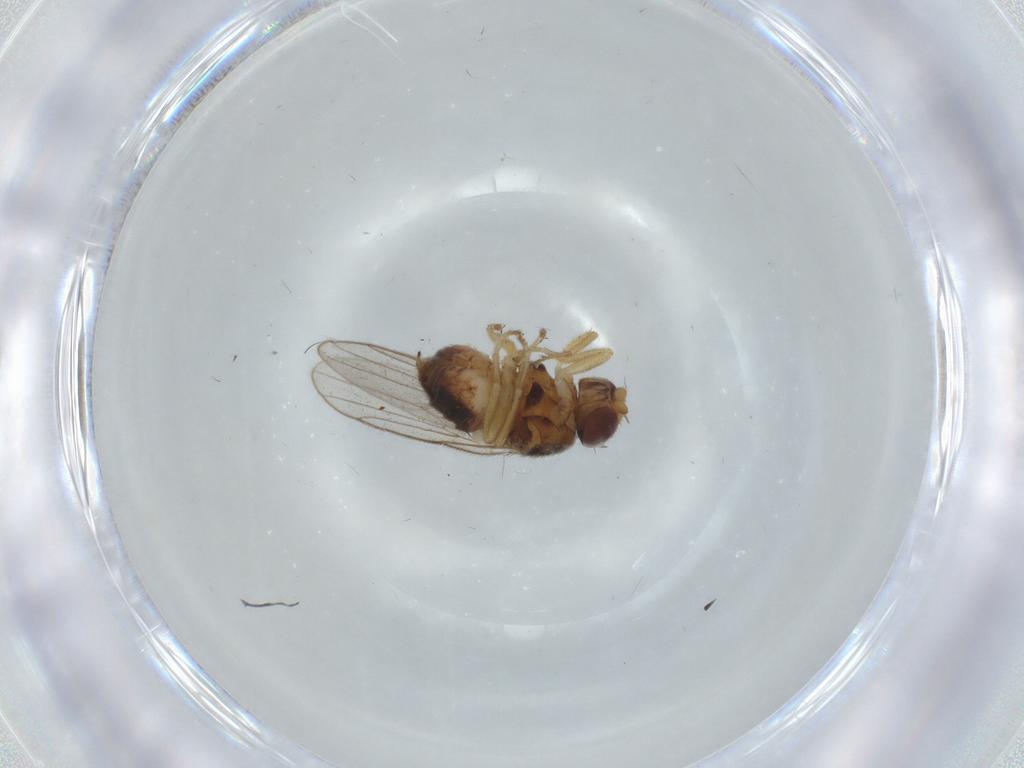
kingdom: Animalia
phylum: Arthropoda
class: Insecta
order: Diptera
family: Chloropidae
